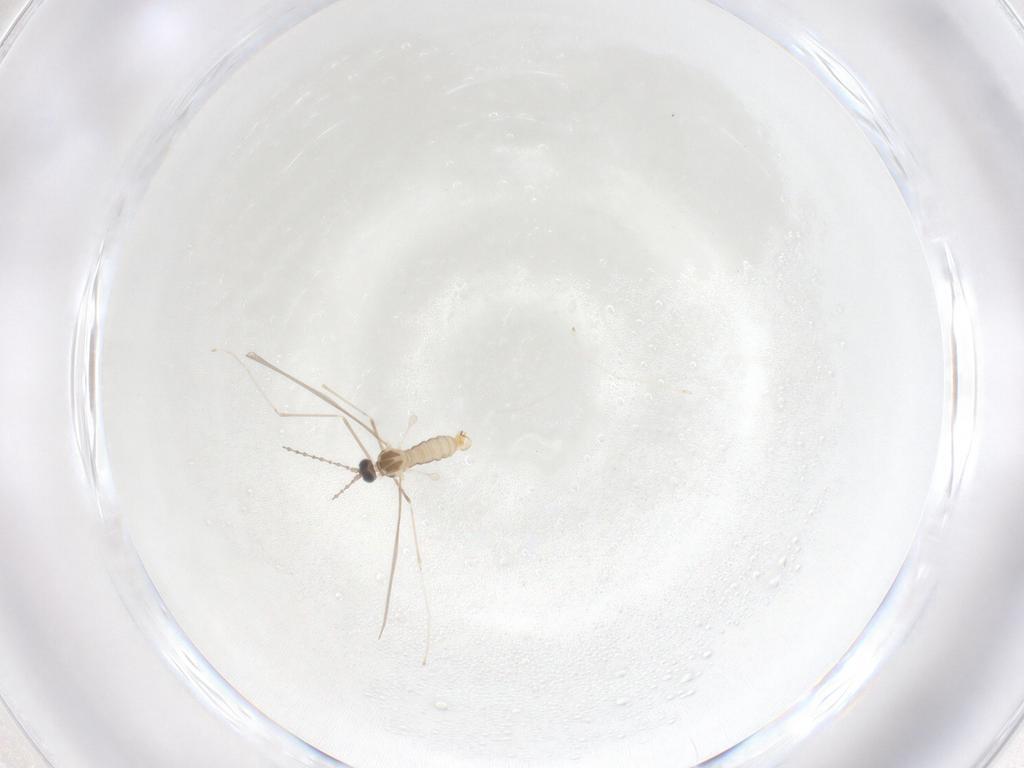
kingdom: Animalia
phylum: Arthropoda
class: Insecta
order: Diptera
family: Cecidomyiidae
